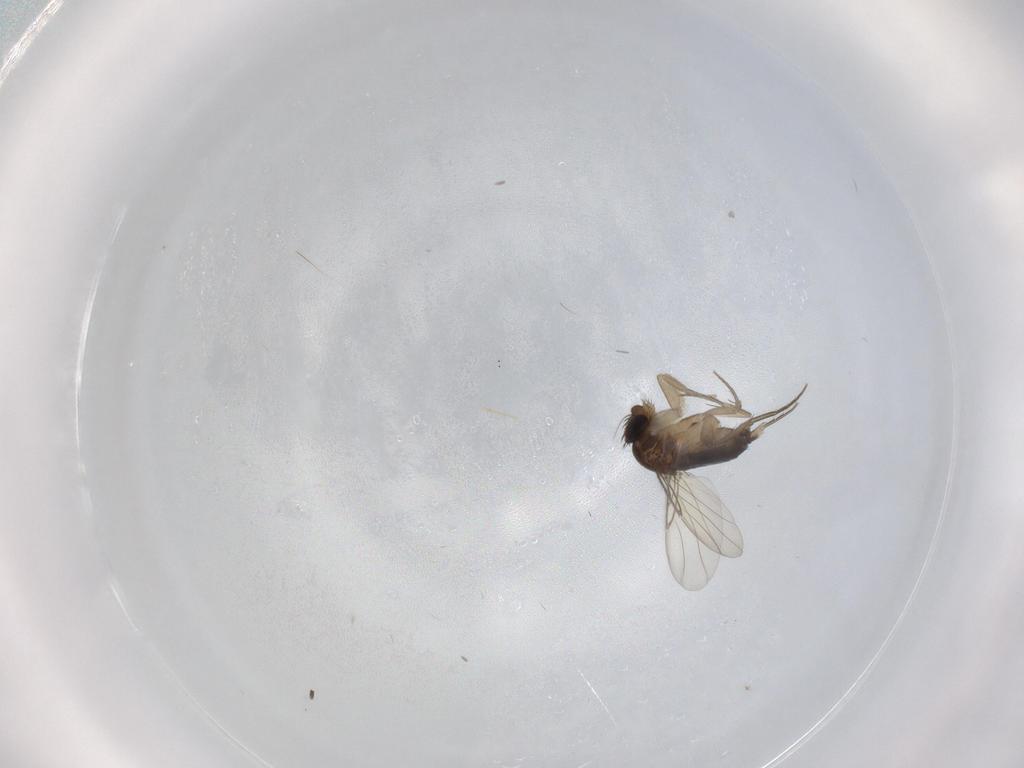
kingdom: Animalia
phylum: Arthropoda
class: Insecta
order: Diptera
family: Phoridae
